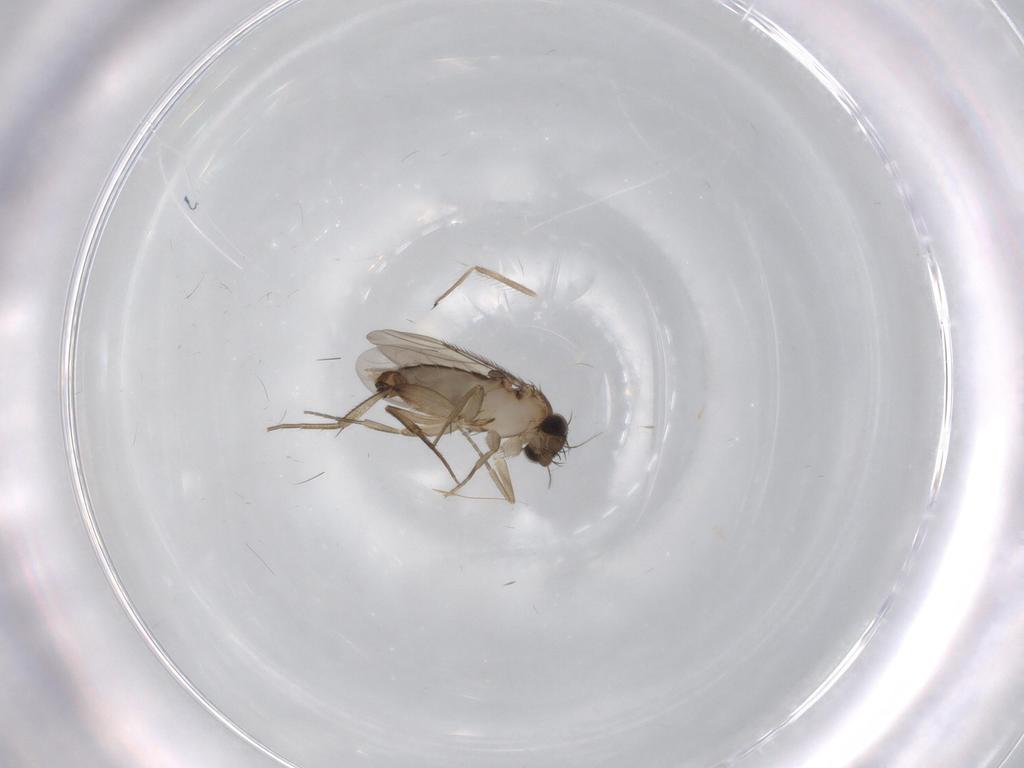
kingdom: Animalia
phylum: Arthropoda
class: Insecta
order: Diptera
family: Phoridae
